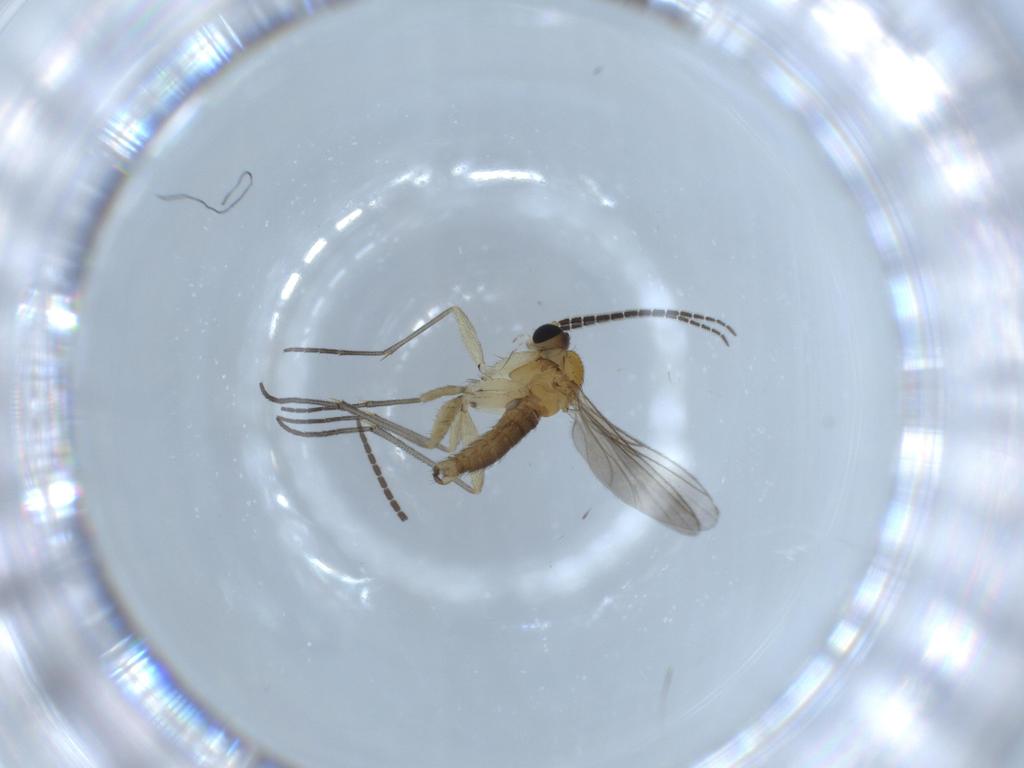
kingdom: Animalia
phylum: Arthropoda
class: Insecta
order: Diptera
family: Sciaridae
